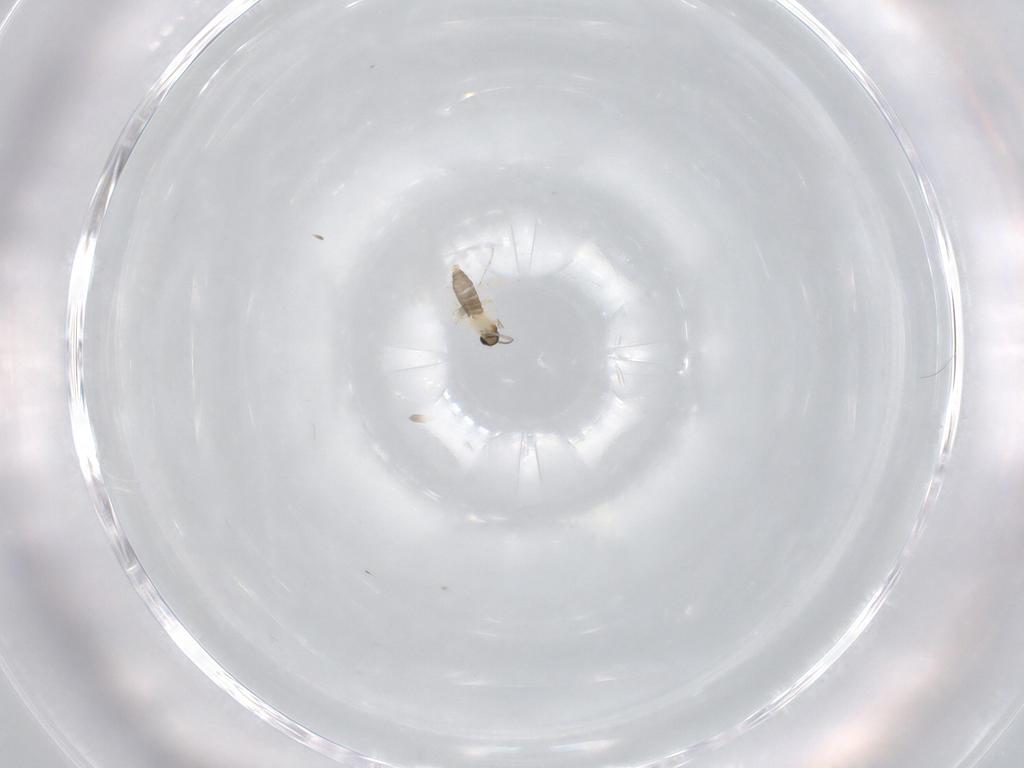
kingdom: Animalia
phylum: Arthropoda
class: Insecta
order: Diptera
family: Cecidomyiidae
